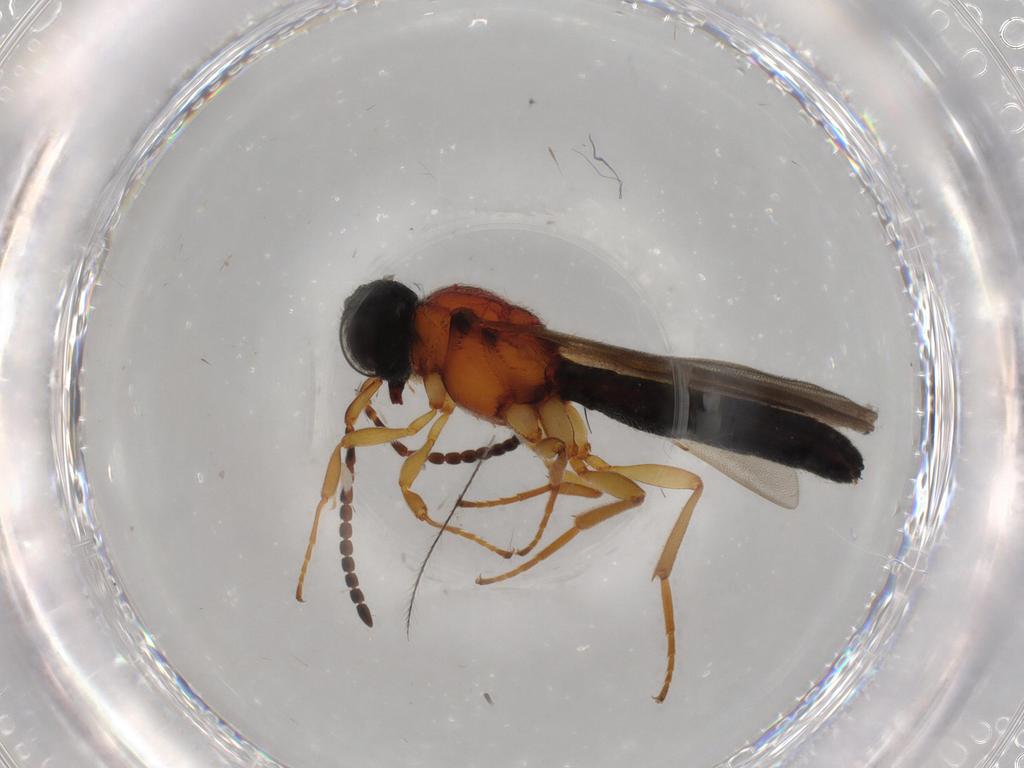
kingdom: Animalia
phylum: Arthropoda
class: Insecta
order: Hymenoptera
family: Scelionidae
